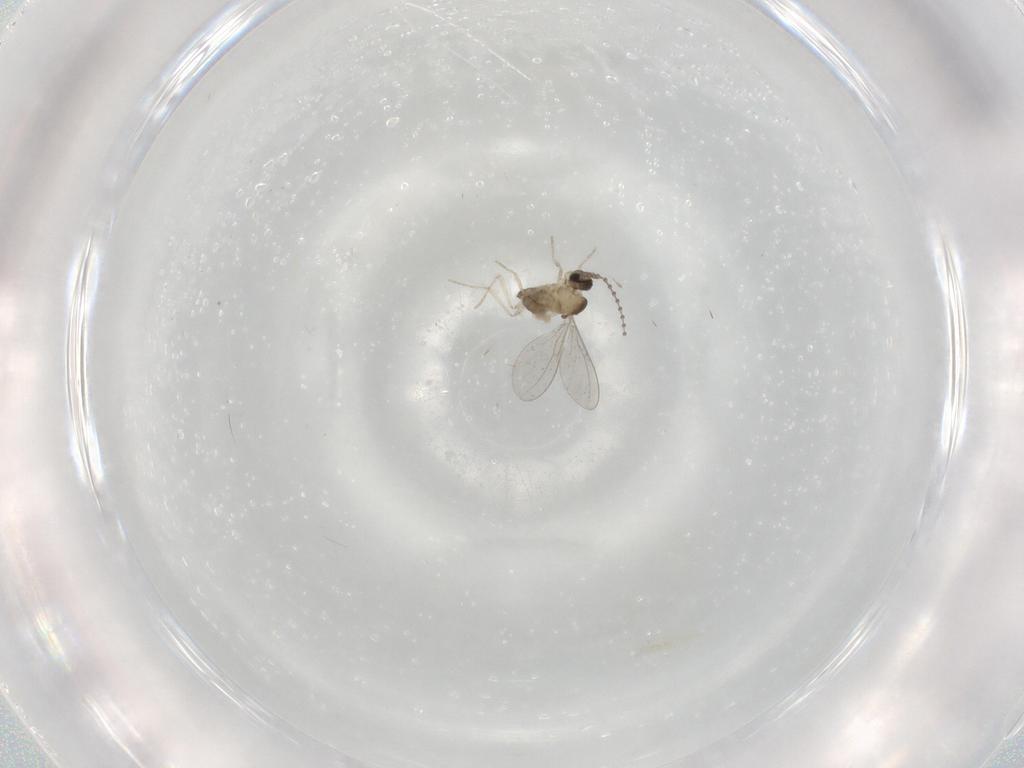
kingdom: Animalia
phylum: Arthropoda
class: Insecta
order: Diptera
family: Cecidomyiidae
